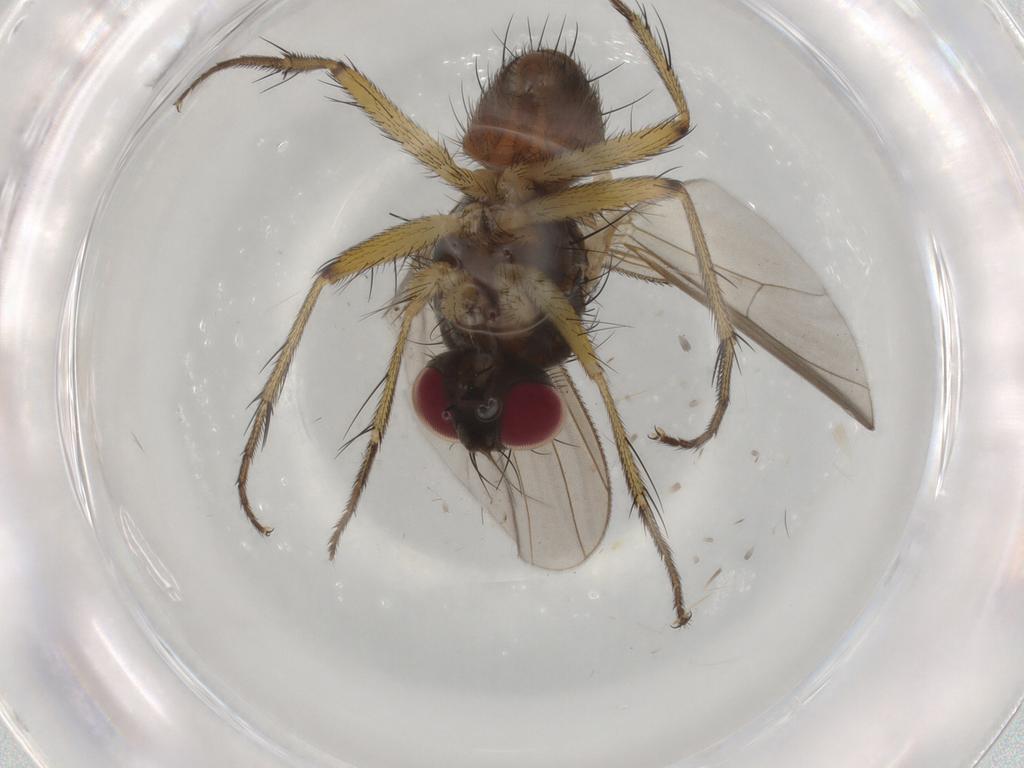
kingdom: Animalia
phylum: Arthropoda
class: Insecta
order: Diptera
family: Muscidae
